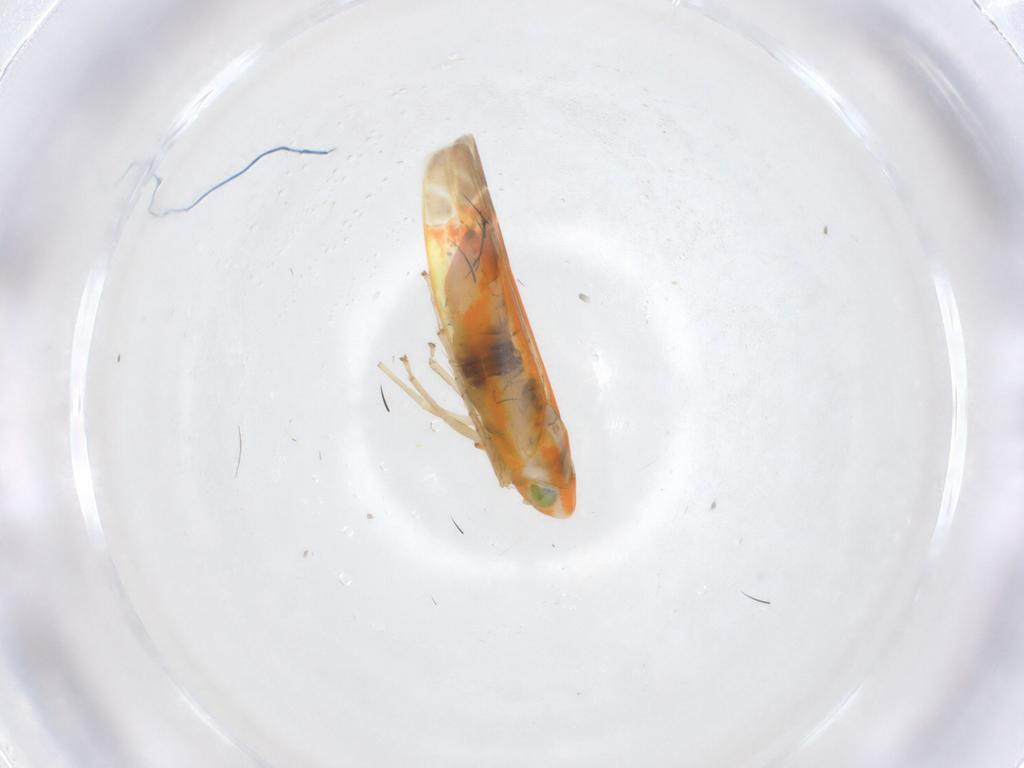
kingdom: Animalia
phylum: Arthropoda
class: Insecta
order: Hemiptera
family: Cicadellidae
